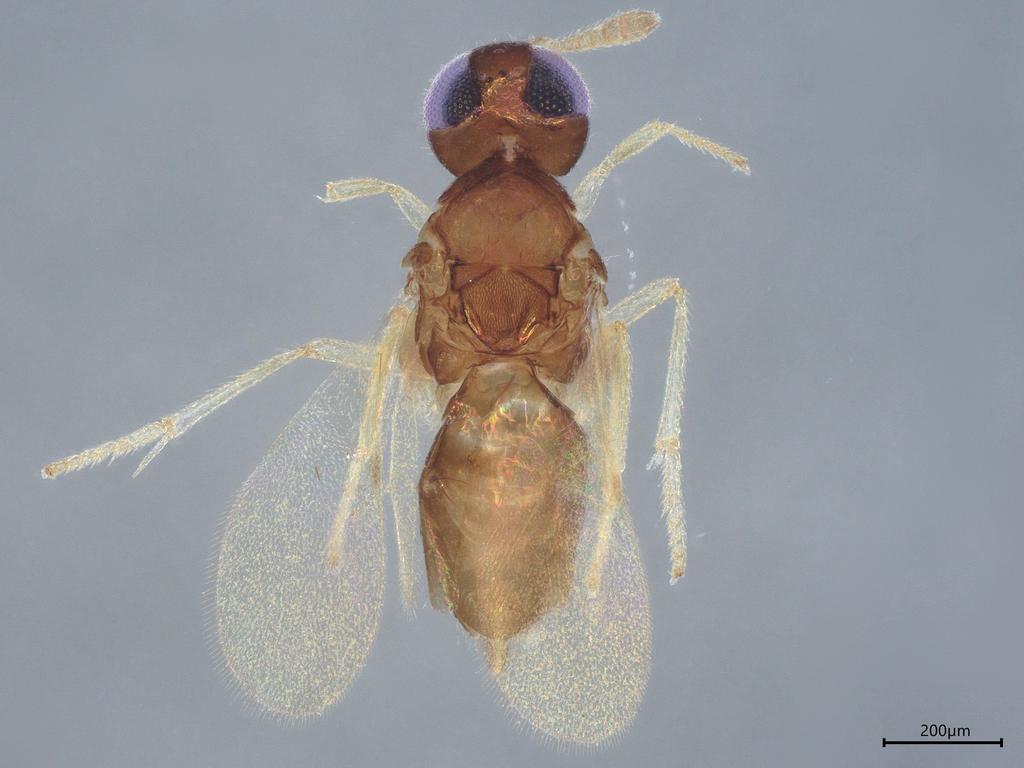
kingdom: Animalia
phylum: Arthropoda
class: Insecta
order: Hymenoptera
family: Encyrtidae
